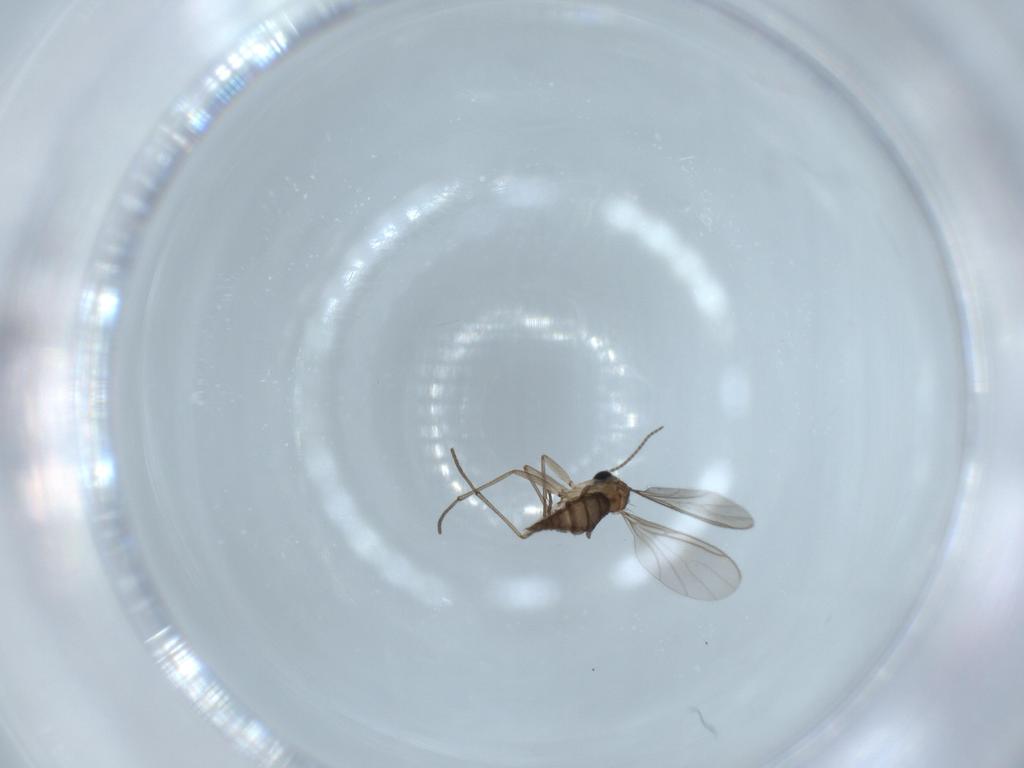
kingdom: Animalia
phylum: Arthropoda
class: Insecta
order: Diptera
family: Sciaridae
